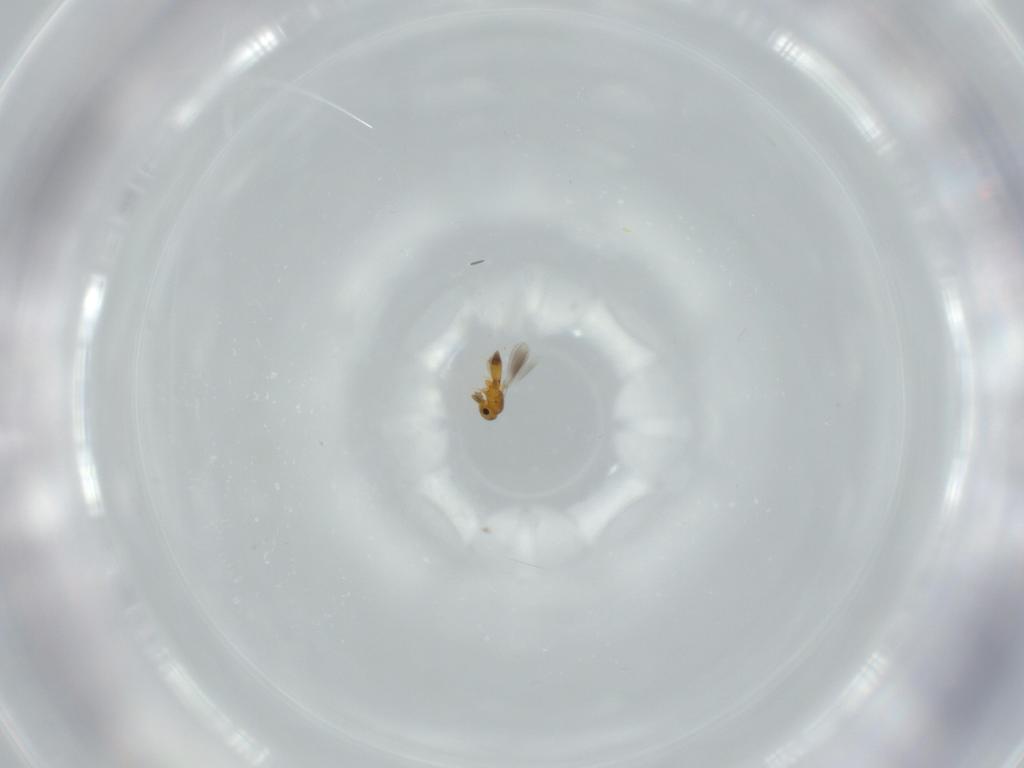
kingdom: Animalia
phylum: Arthropoda
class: Insecta
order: Hymenoptera
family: Platygastridae
